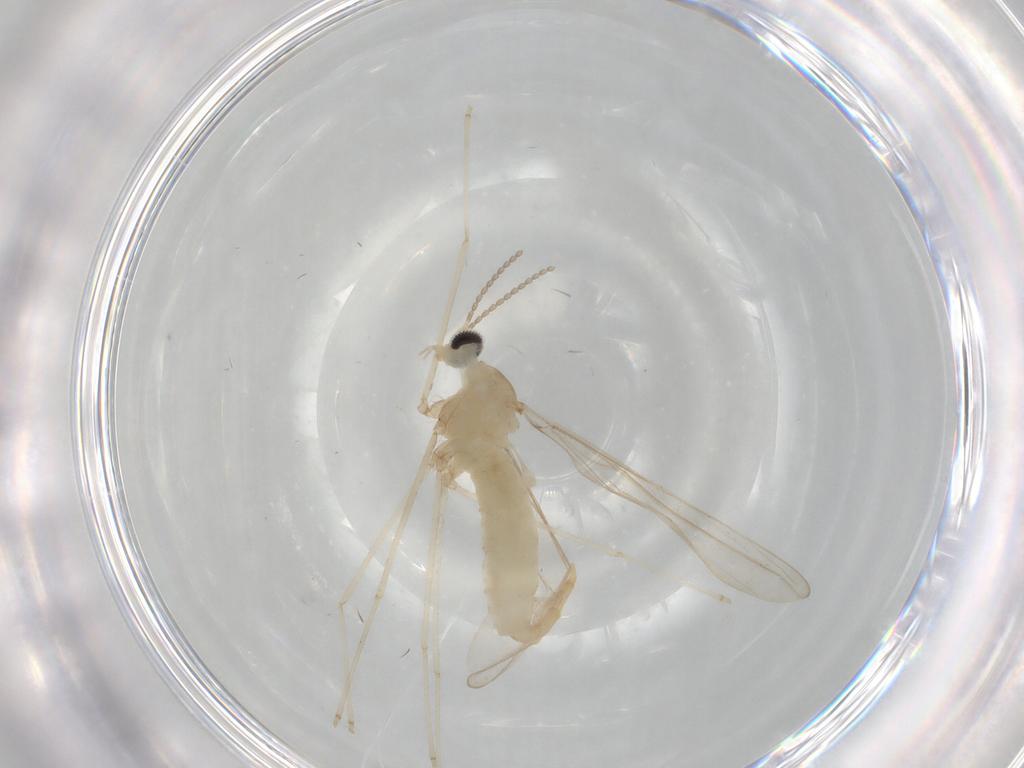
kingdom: Animalia
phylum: Arthropoda
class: Insecta
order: Diptera
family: Cecidomyiidae
